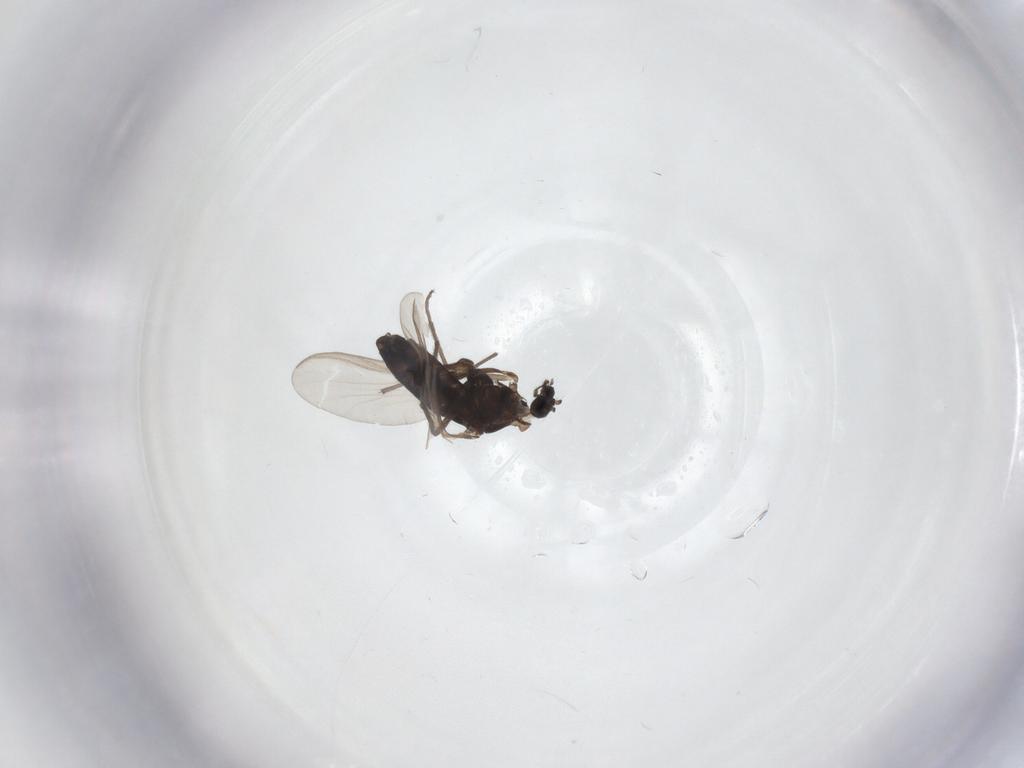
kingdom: Animalia
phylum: Arthropoda
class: Insecta
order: Diptera
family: Chironomidae
